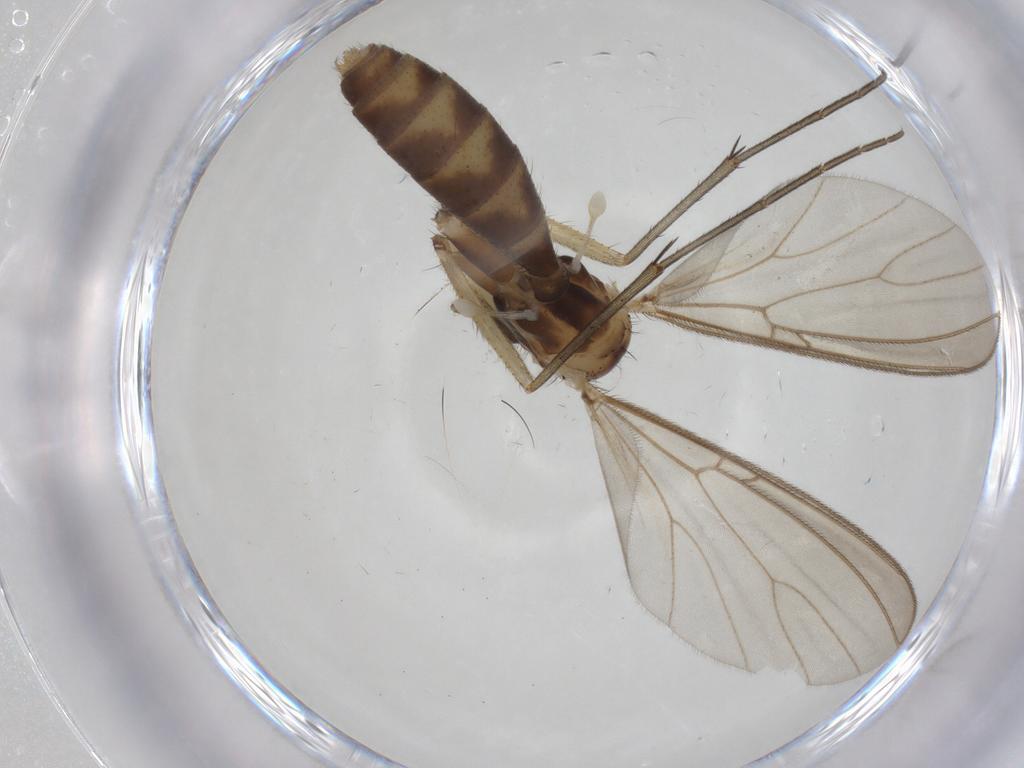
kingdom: Animalia
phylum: Arthropoda
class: Insecta
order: Diptera
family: Mycetophilidae
